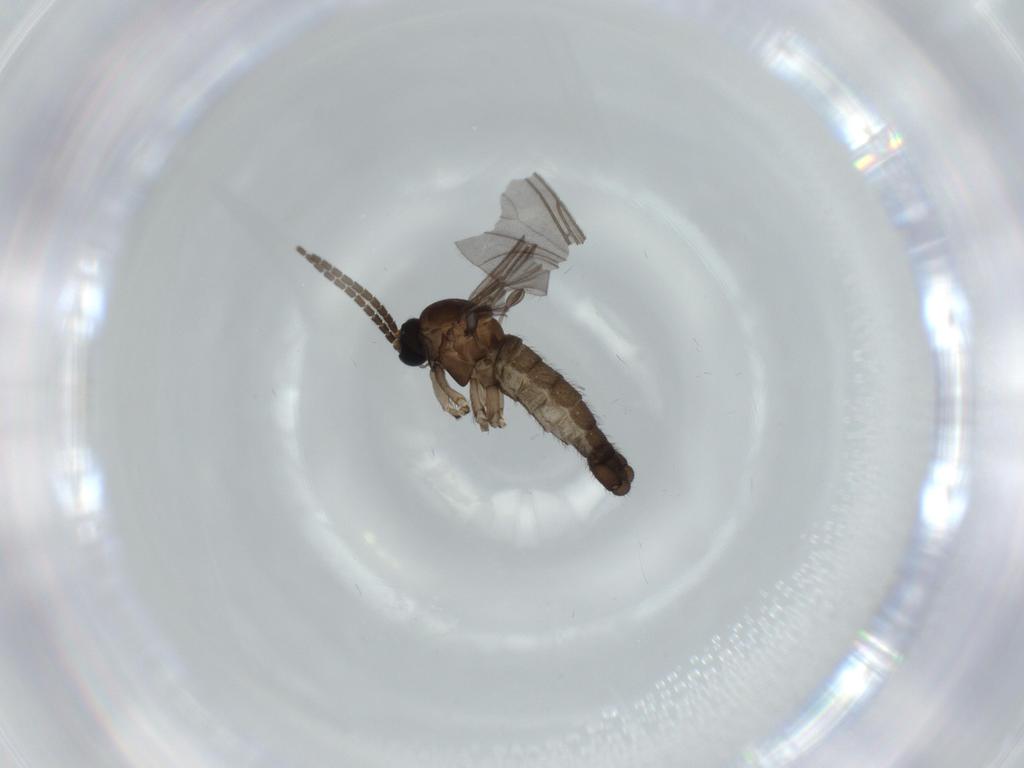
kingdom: Animalia
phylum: Arthropoda
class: Insecta
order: Diptera
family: Sciaridae
